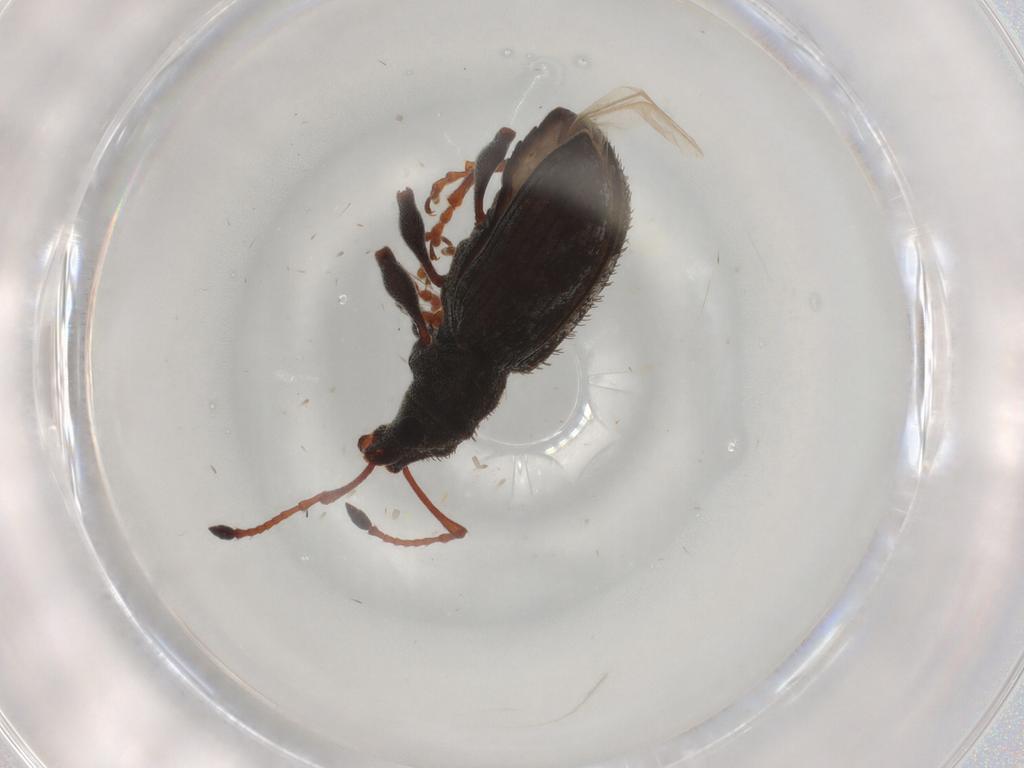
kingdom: Animalia
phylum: Arthropoda
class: Insecta
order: Coleoptera
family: Curculionidae
